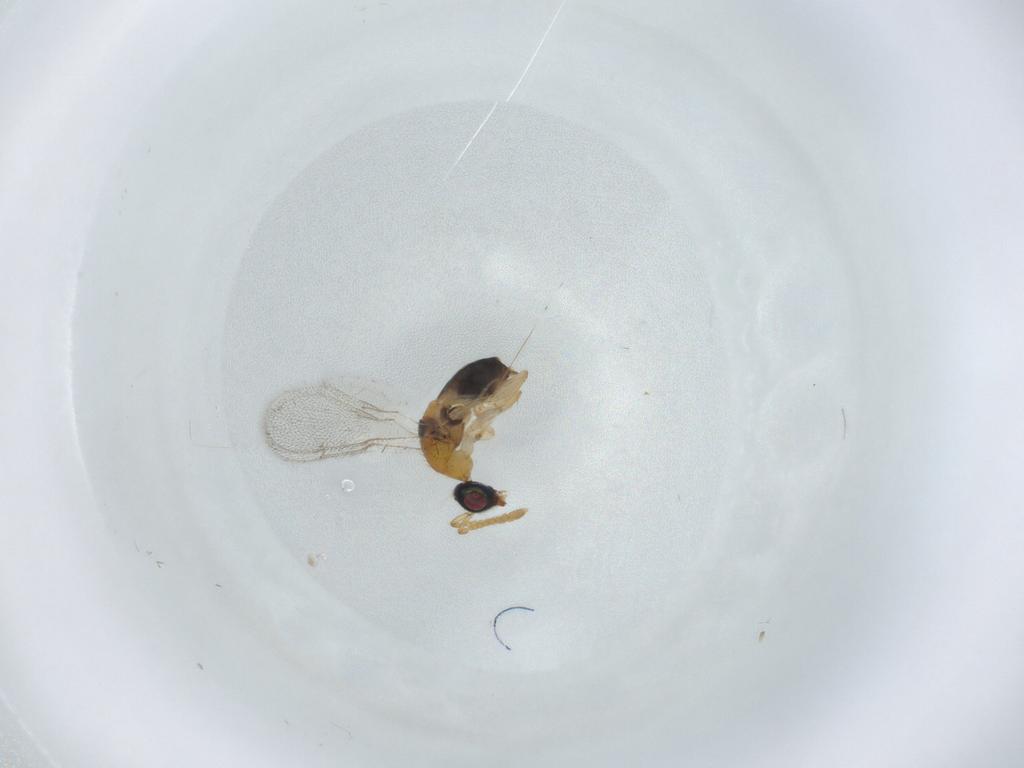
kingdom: Animalia
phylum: Arthropoda
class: Insecta
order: Hymenoptera
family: Torymidae
